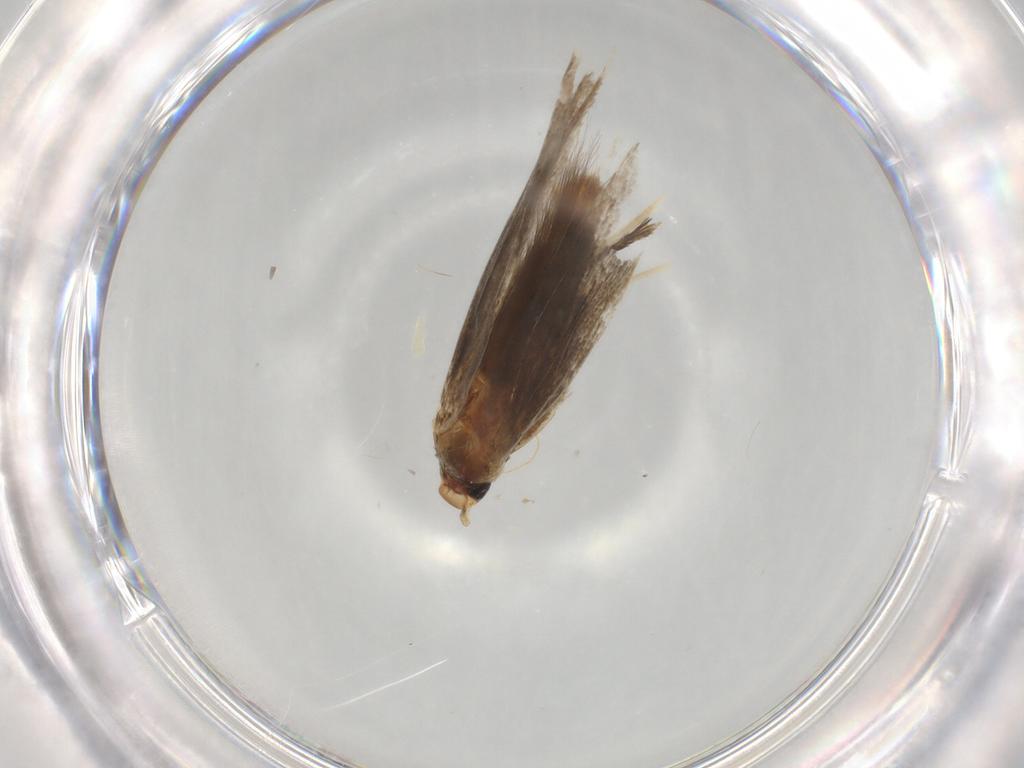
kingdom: Animalia
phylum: Arthropoda
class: Insecta
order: Lepidoptera
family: Gracillariidae
